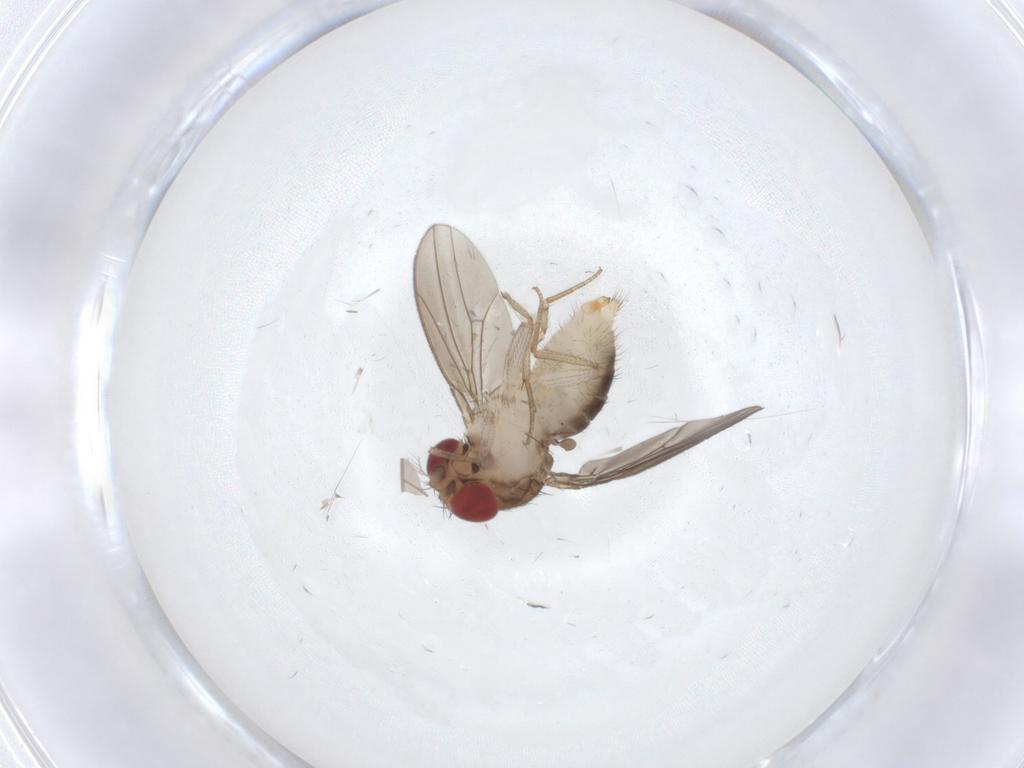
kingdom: Animalia
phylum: Arthropoda
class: Insecta
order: Diptera
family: Drosophilidae
